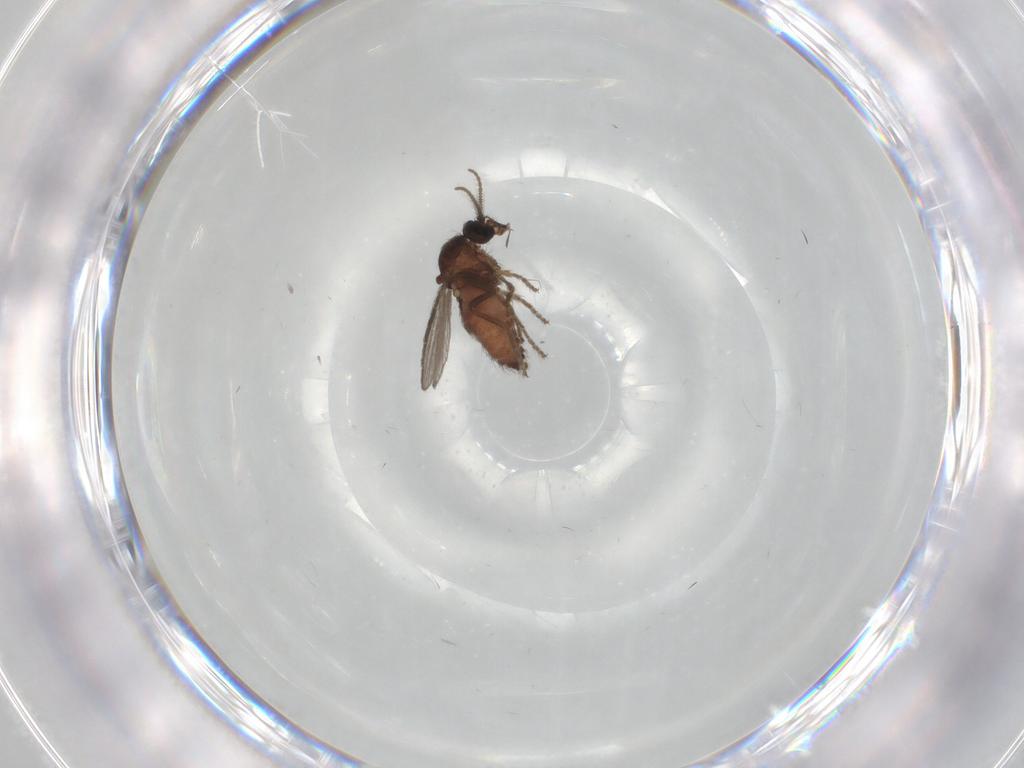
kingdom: Animalia
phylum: Arthropoda
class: Insecta
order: Diptera
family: Ceratopogonidae
